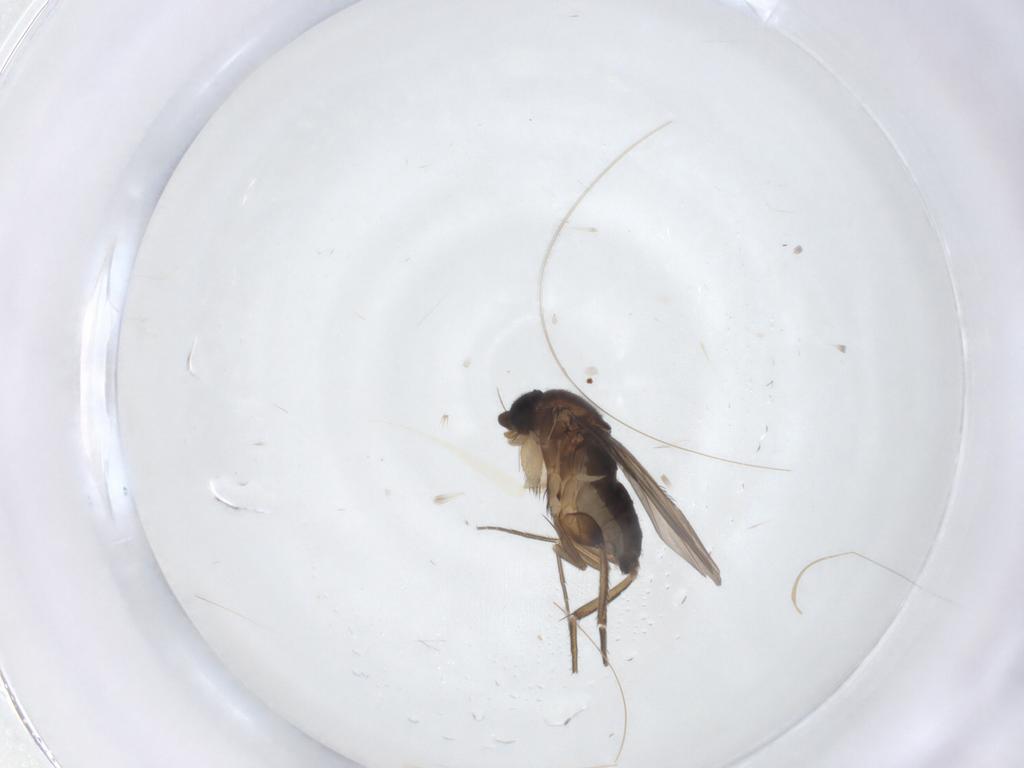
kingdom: Animalia
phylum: Arthropoda
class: Insecta
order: Diptera
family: Phoridae
